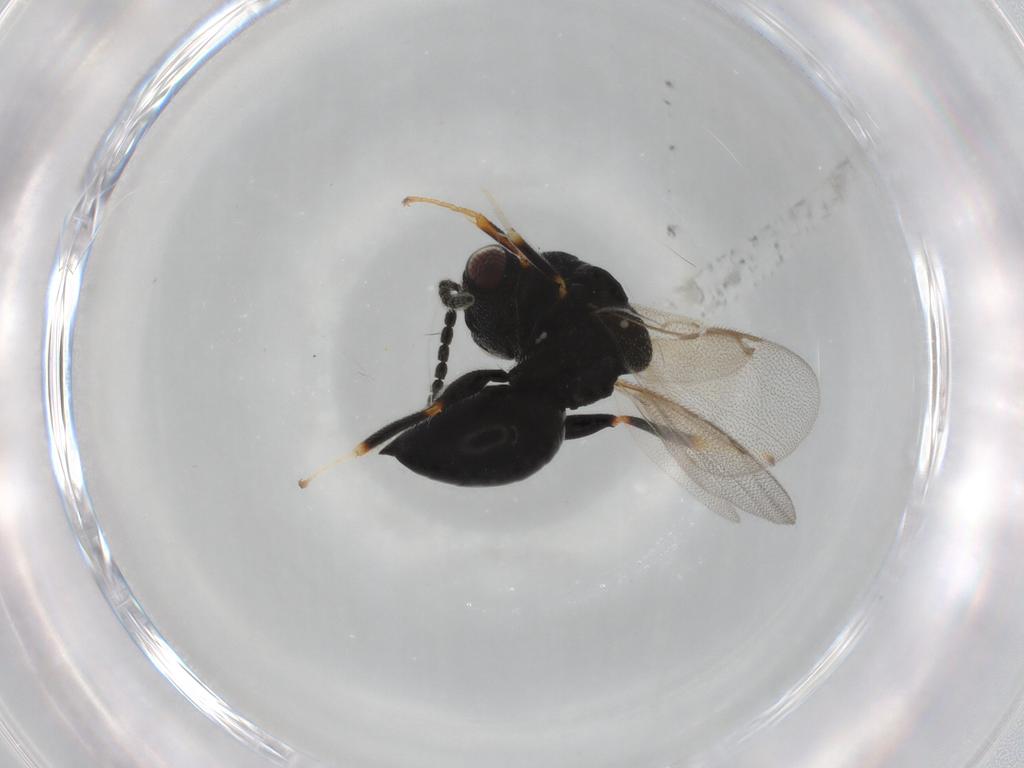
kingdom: Animalia
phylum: Arthropoda
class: Insecta
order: Hymenoptera
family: Eurytomidae
